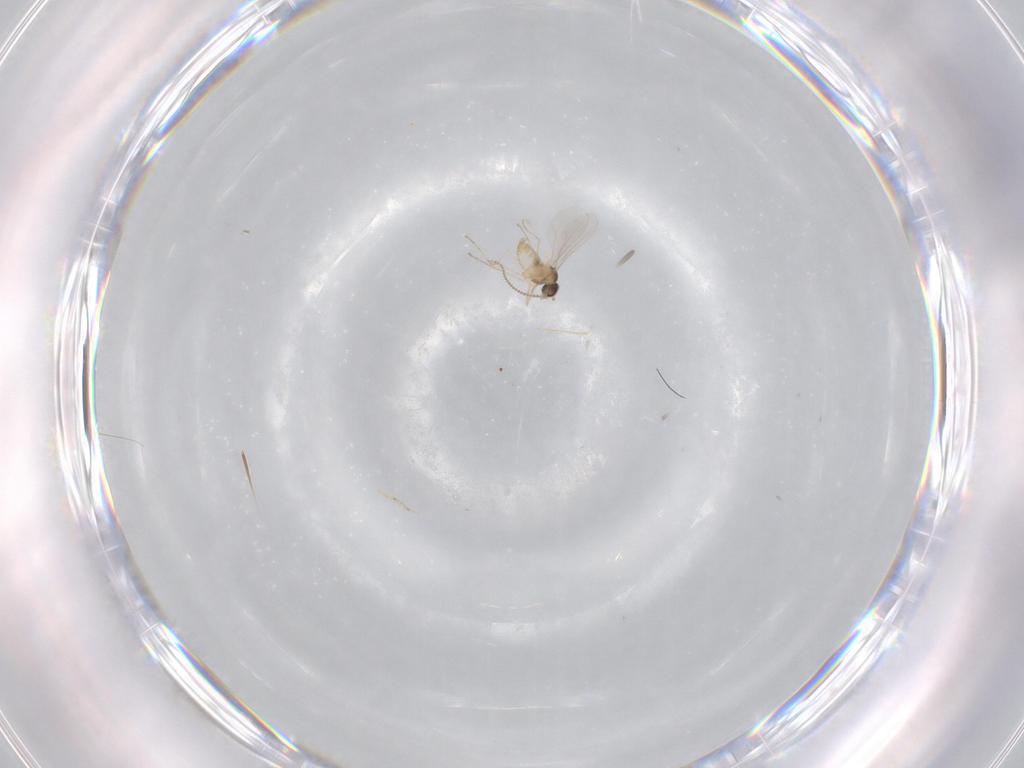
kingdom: Animalia
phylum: Arthropoda
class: Insecta
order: Diptera
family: Cecidomyiidae
